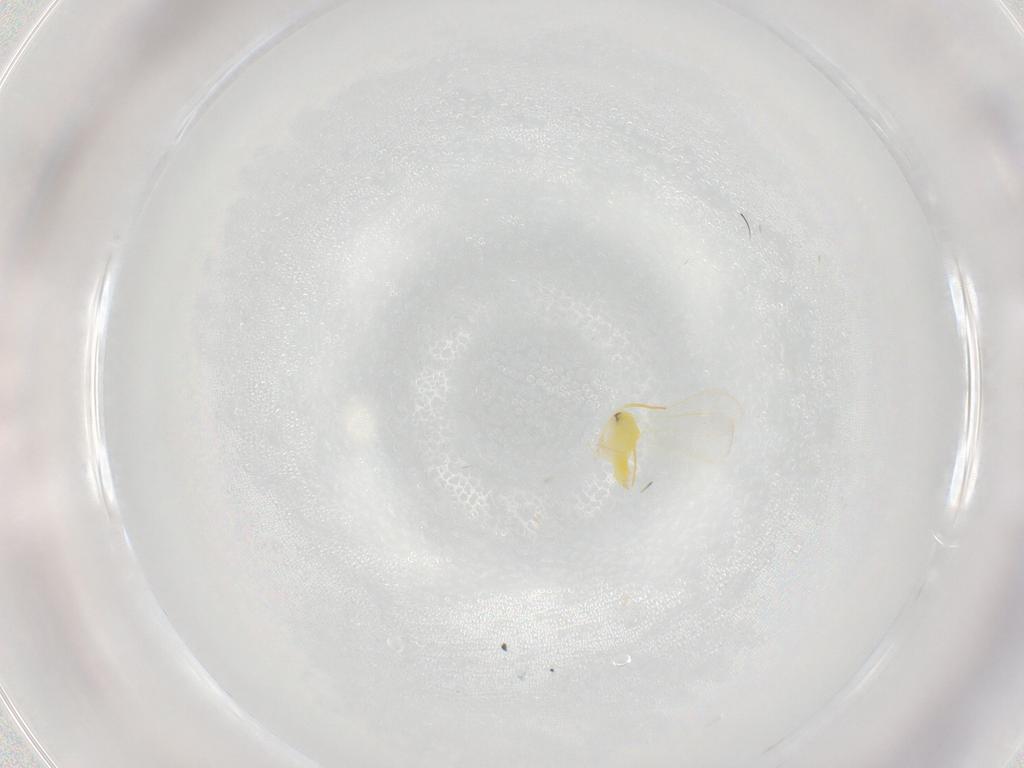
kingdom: Animalia
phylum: Arthropoda
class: Insecta
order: Hemiptera
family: Aleyrodidae
